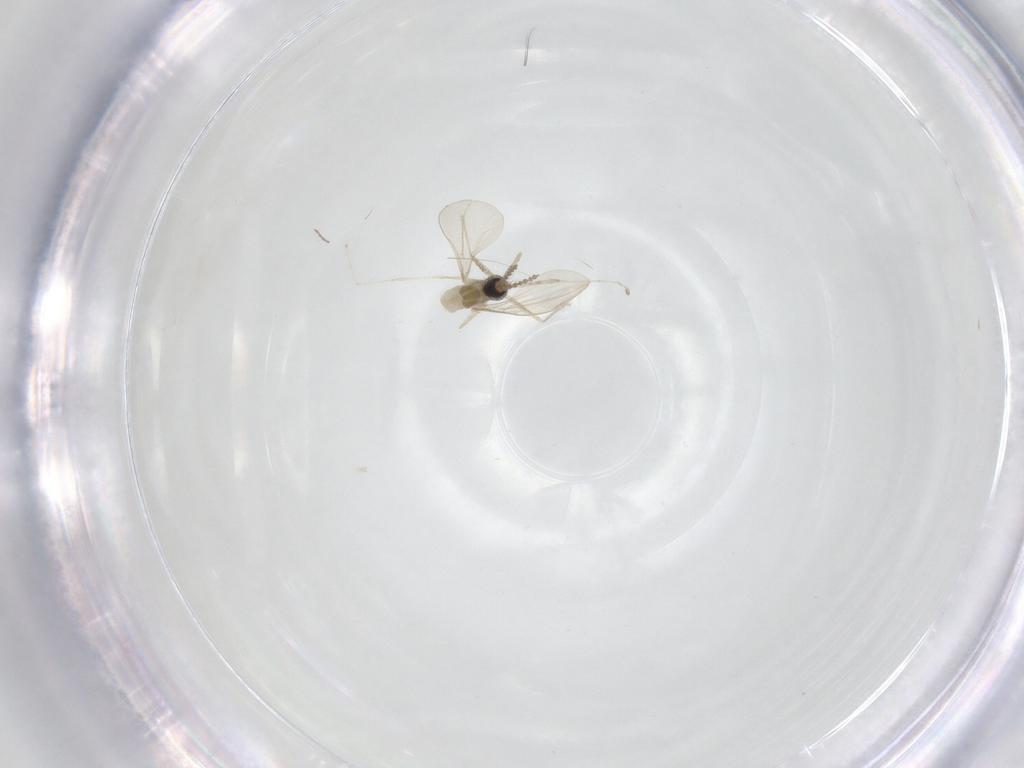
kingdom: Animalia
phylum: Arthropoda
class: Insecta
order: Diptera
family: Cecidomyiidae
